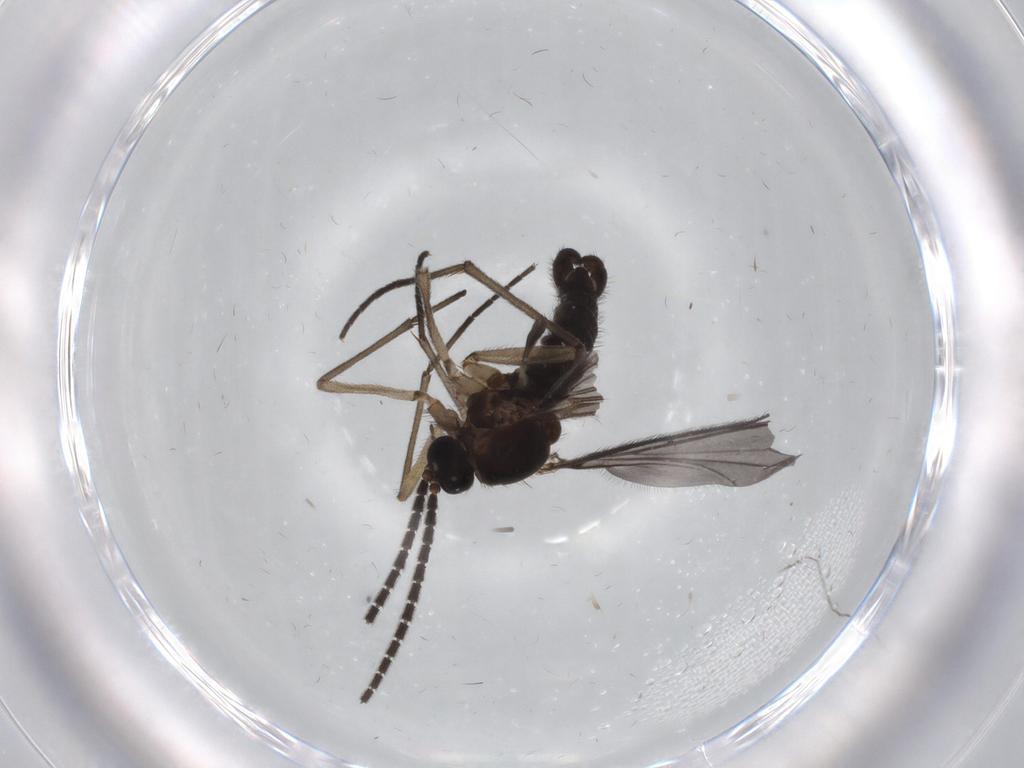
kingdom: Animalia
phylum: Arthropoda
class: Insecta
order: Diptera
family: Sciaridae
